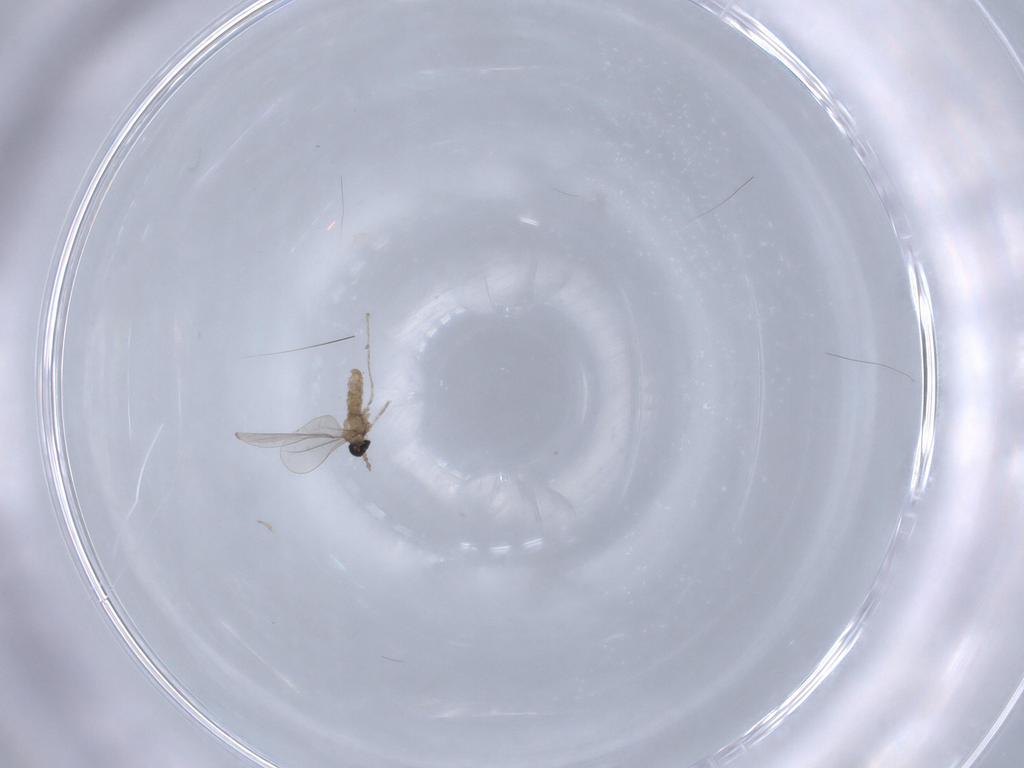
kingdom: Animalia
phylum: Arthropoda
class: Insecta
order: Diptera
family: Cecidomyiidae
